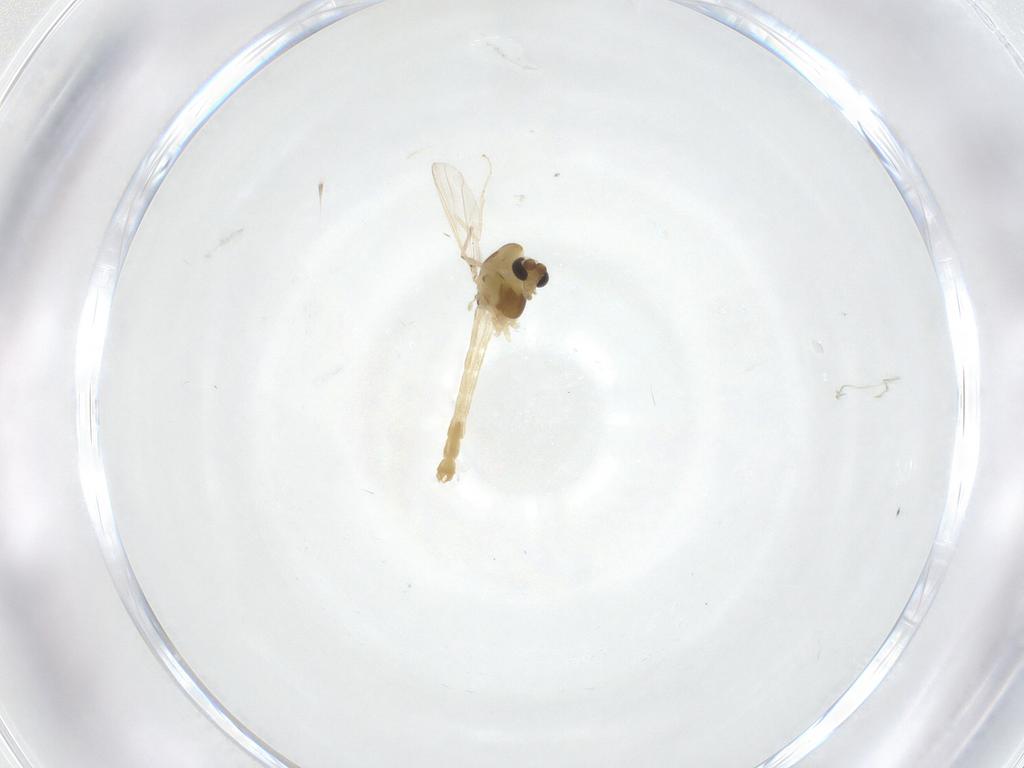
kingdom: Animalia
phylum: Arthropoda
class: Insecta
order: Diptera
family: Chironomidae
